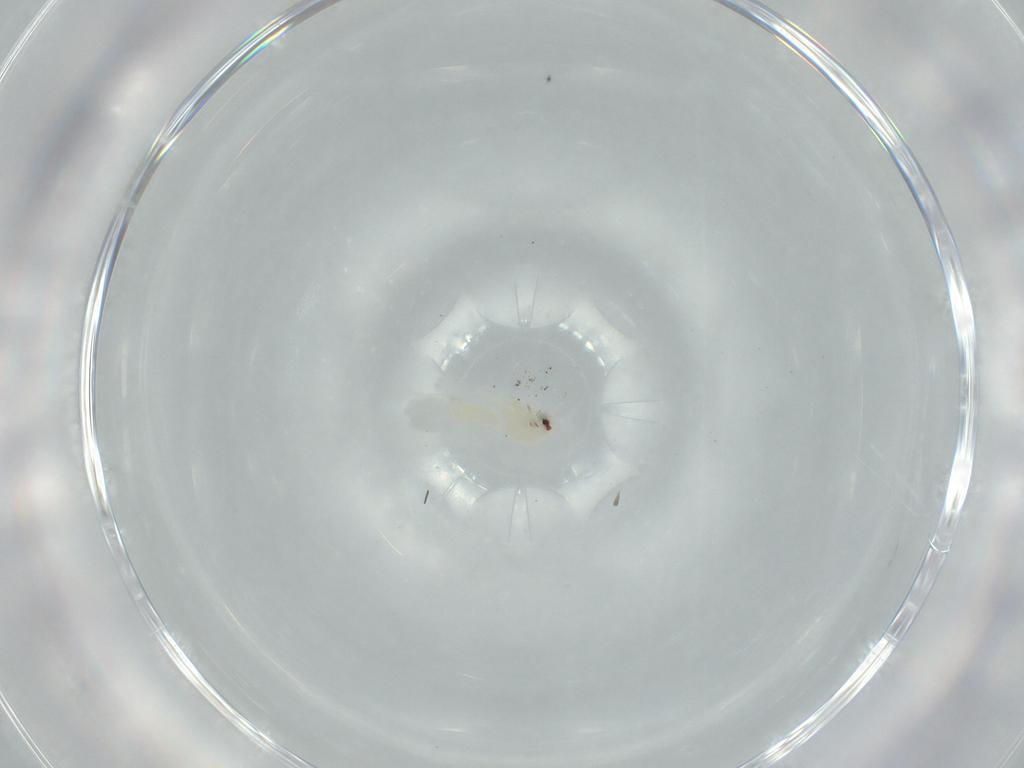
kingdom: Animalia
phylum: Arthropoda
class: Insecta
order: Hemiptera
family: Aleyrodidae
